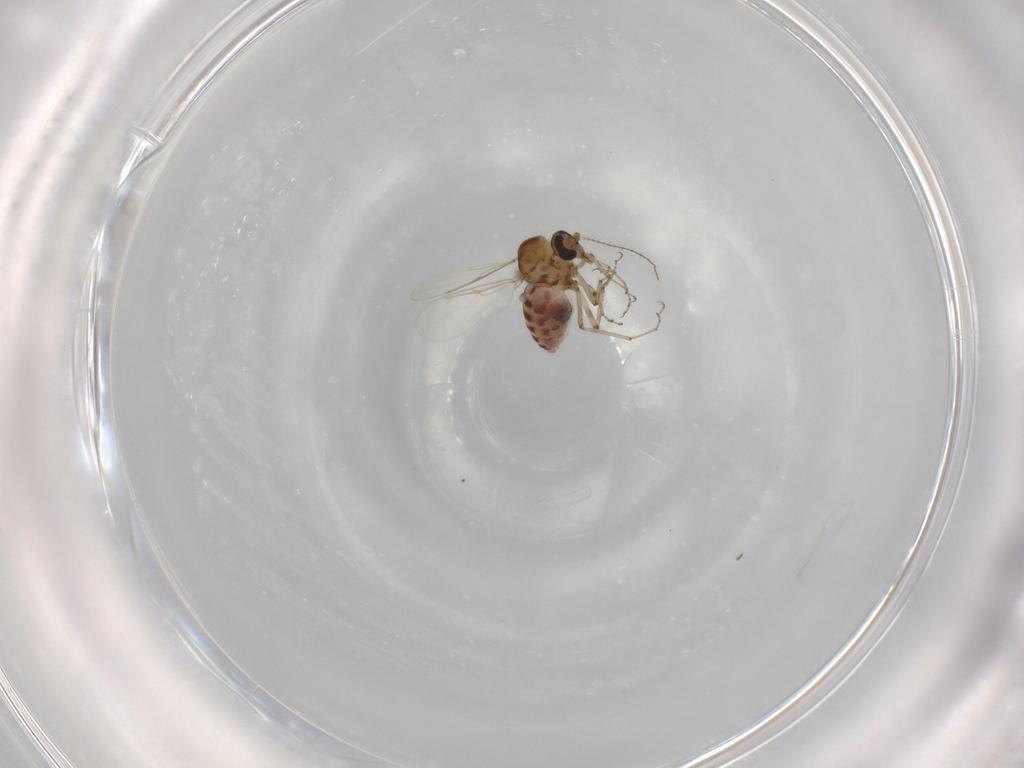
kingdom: Animalia
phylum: Arthropoda
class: Insecta
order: Diptera
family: Ceratopogonidae
